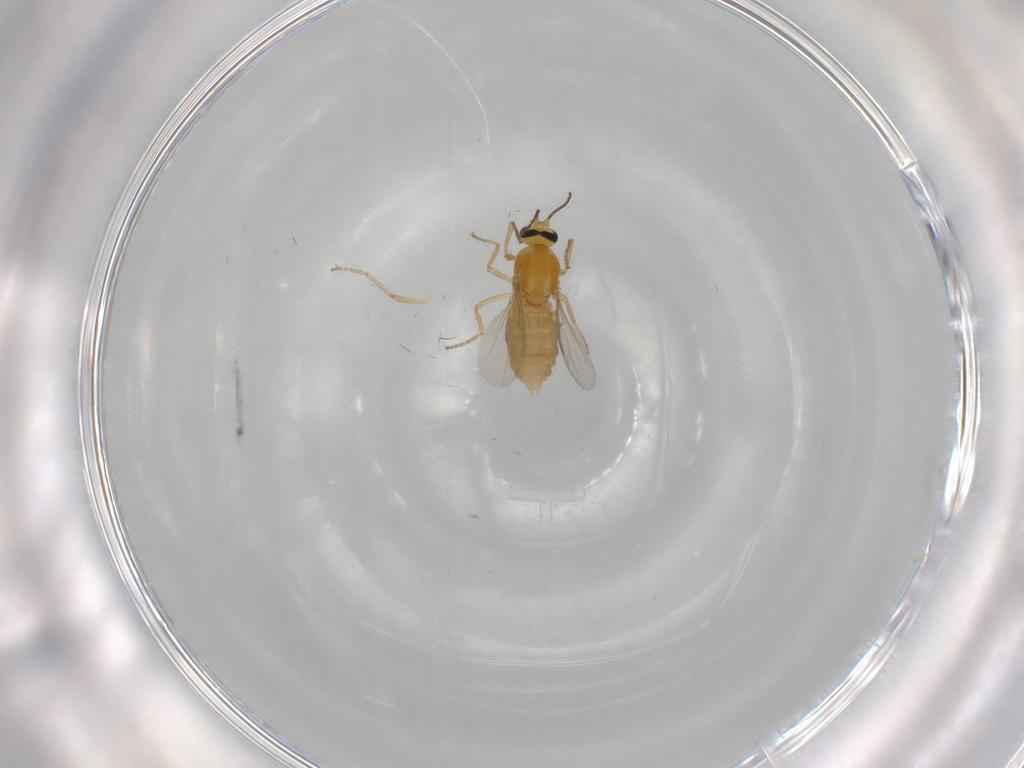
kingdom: Animalia
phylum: Arthropoda
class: Insecta
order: Diptera
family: Ceratopogonidae
